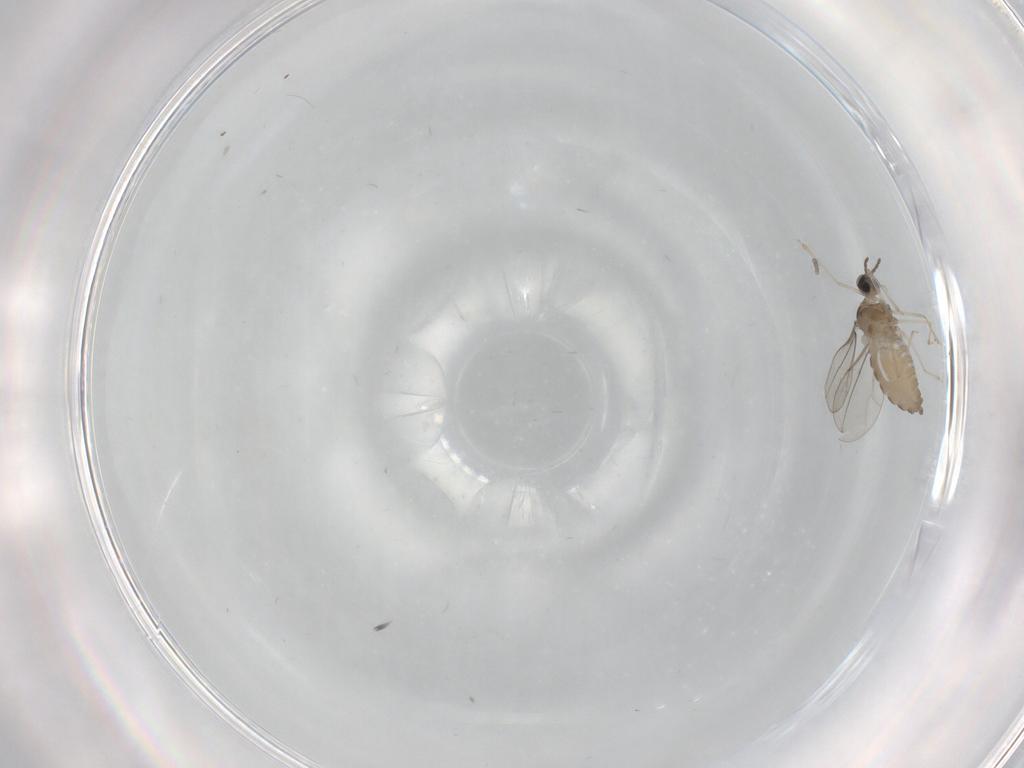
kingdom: Animalia
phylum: Arthropoda
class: Insecta
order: Diptera
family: Cecidomyiidae
